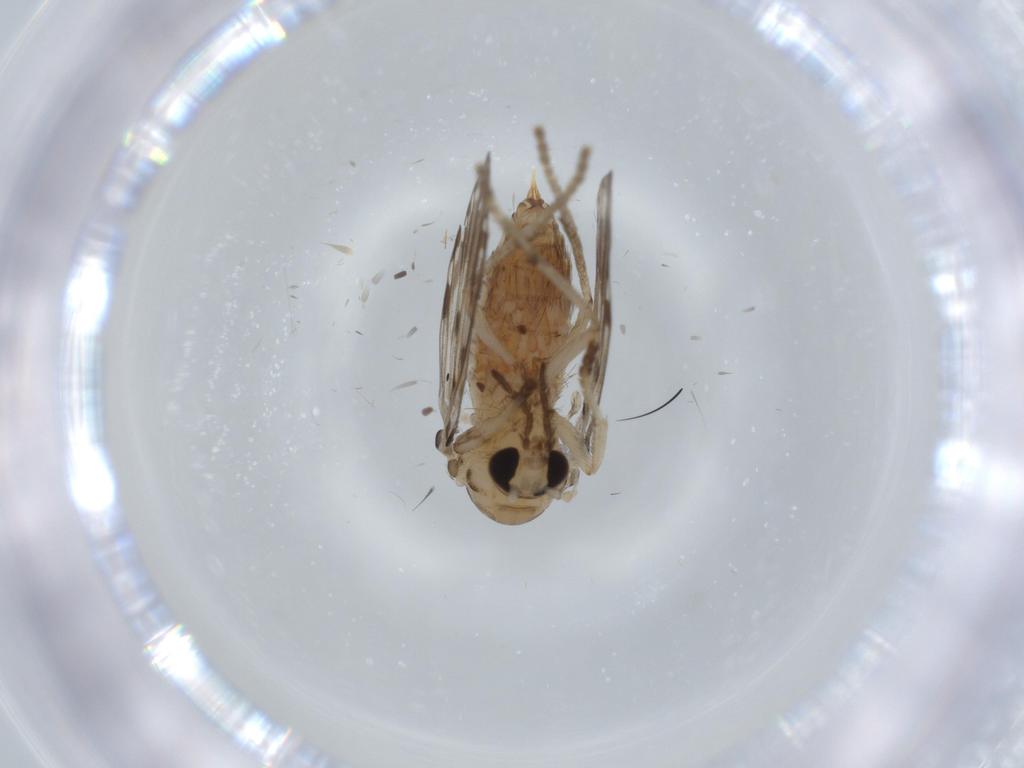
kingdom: Animalia
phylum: Arthropoda
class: Insecta
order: Diptera
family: Psychodidae
